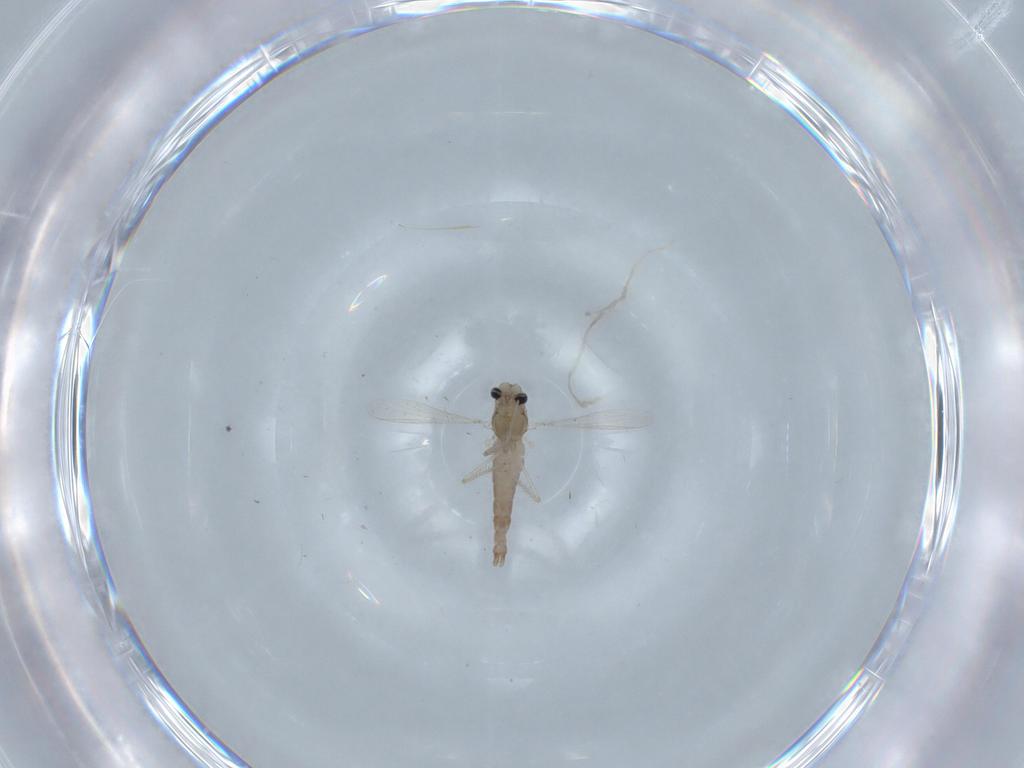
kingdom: Animalia
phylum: Arthropoda
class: Insecta
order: Diptera
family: Chironomidae
